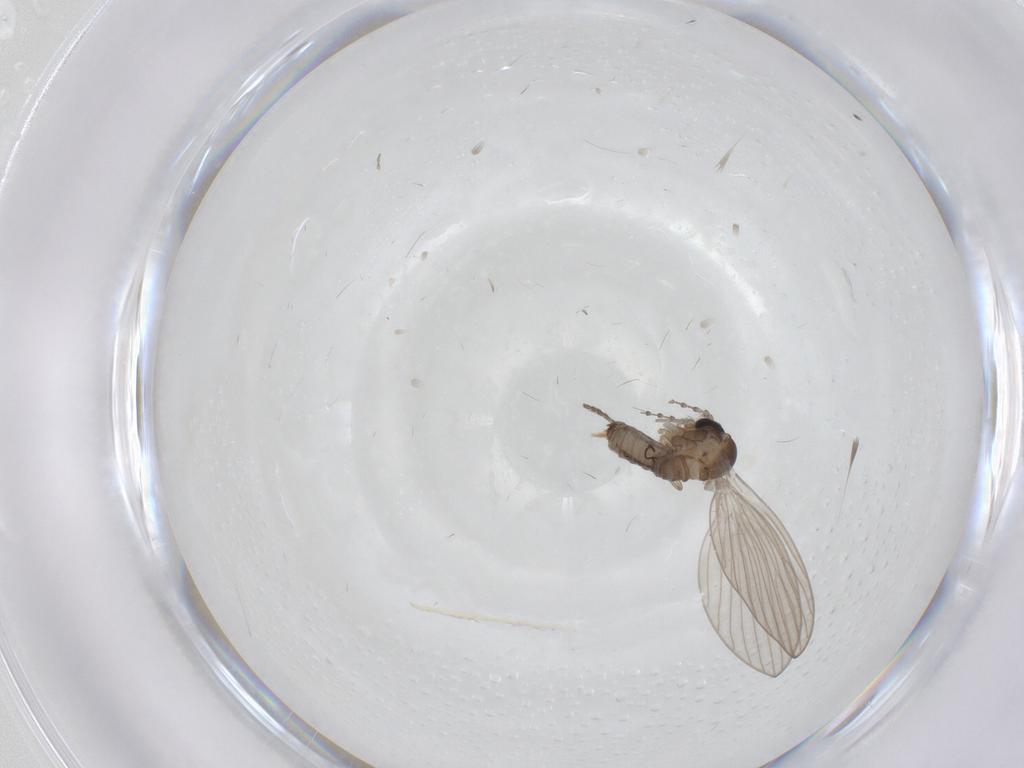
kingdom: Animalia
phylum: Arthropoda
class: Insecta
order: Diptera
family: Psychodidae
